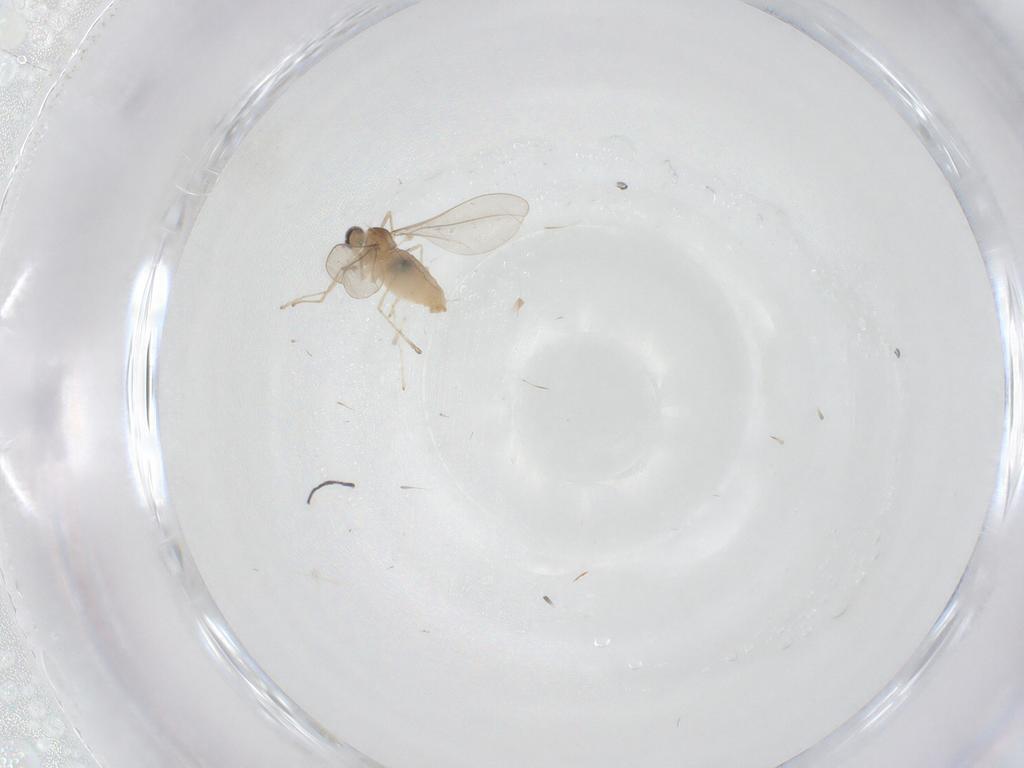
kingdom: Animalia
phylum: Arthropoda
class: Insecta
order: Diptera
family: Cecidomyiidae
